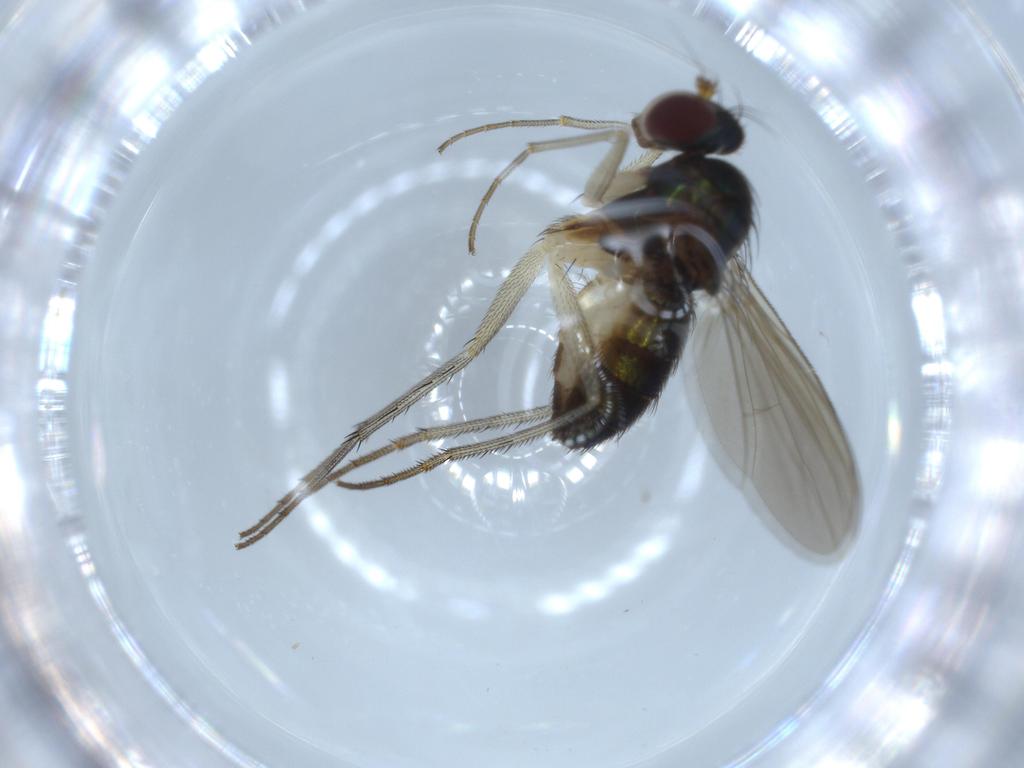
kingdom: Animalia
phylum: Arthropoda
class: Insecta
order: Diptera
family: Dolichopodidae
